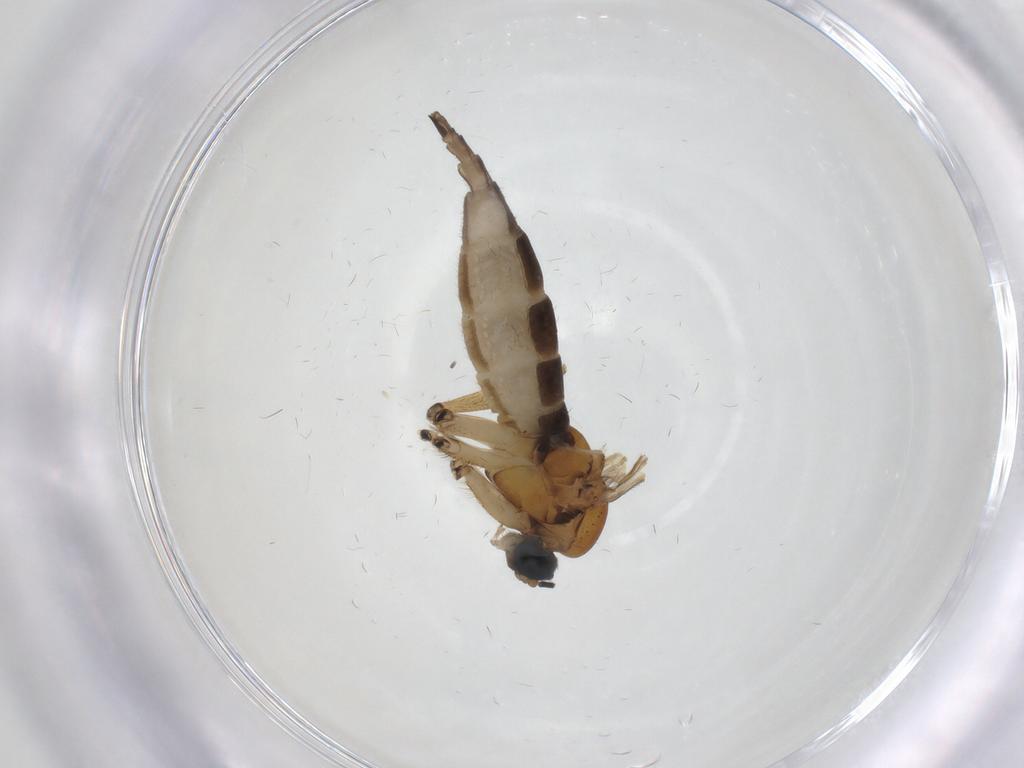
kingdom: Animalia
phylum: Arthropoda
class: Insecta
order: Diptera
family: Sciaridae
